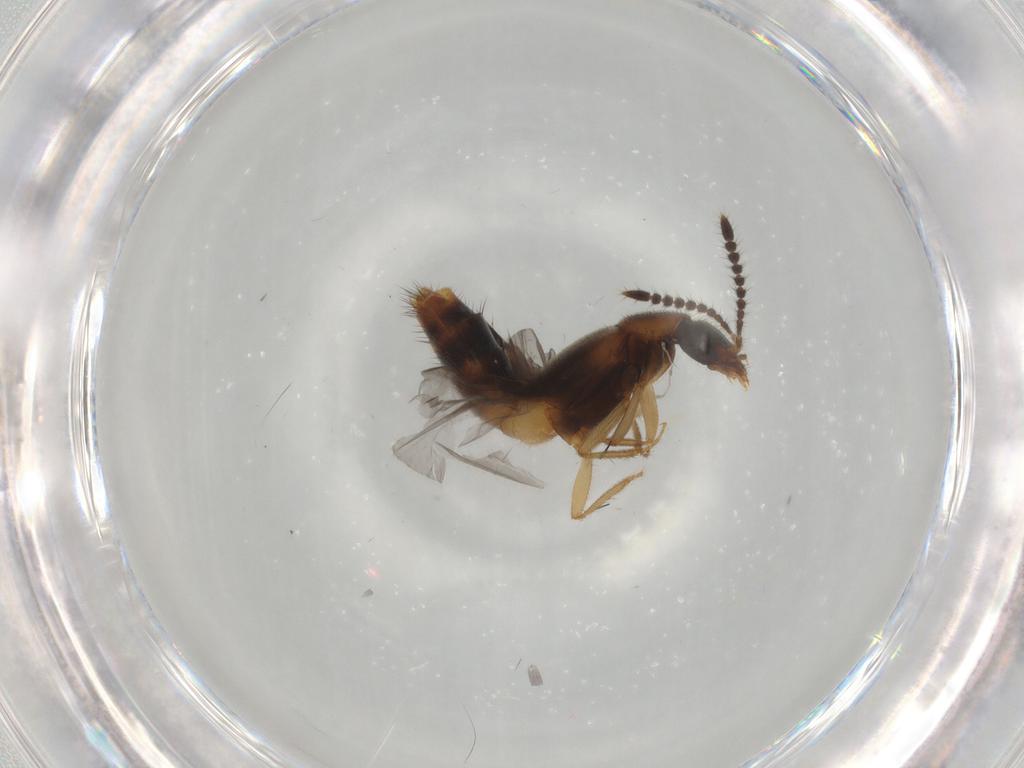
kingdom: Animalia
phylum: Arthropoda
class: Insecta
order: Coleoptera
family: Staphylinidae
